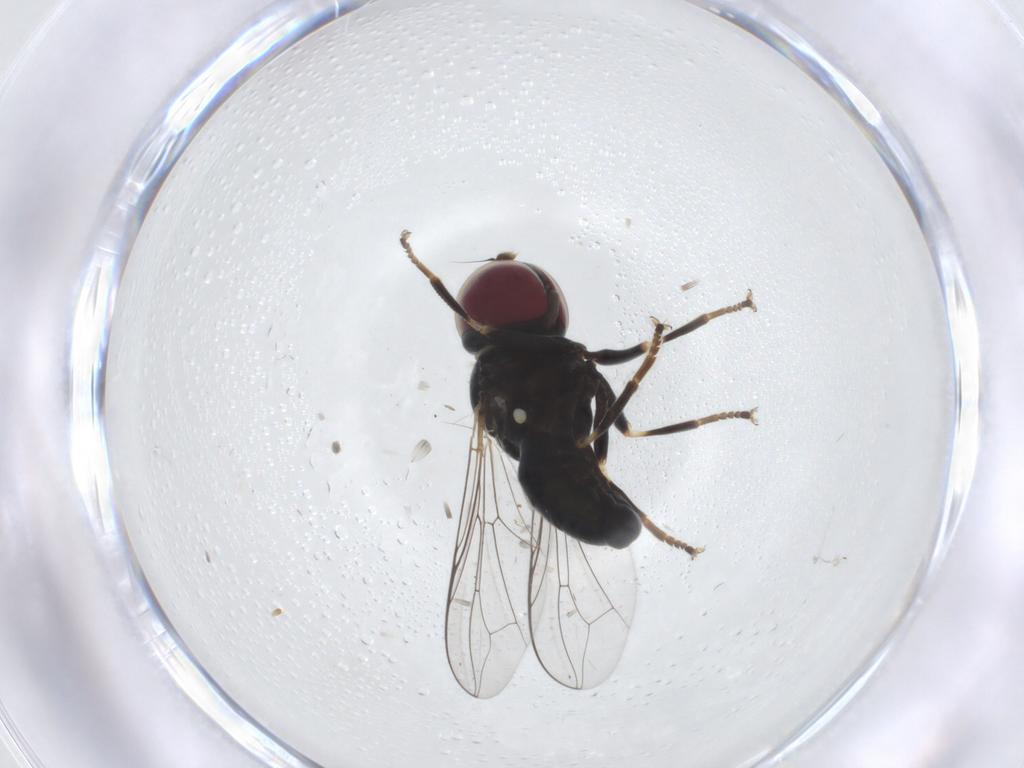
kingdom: Animalia
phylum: Arthropoda
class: Insecta
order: Diptera
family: Pipunculidae
